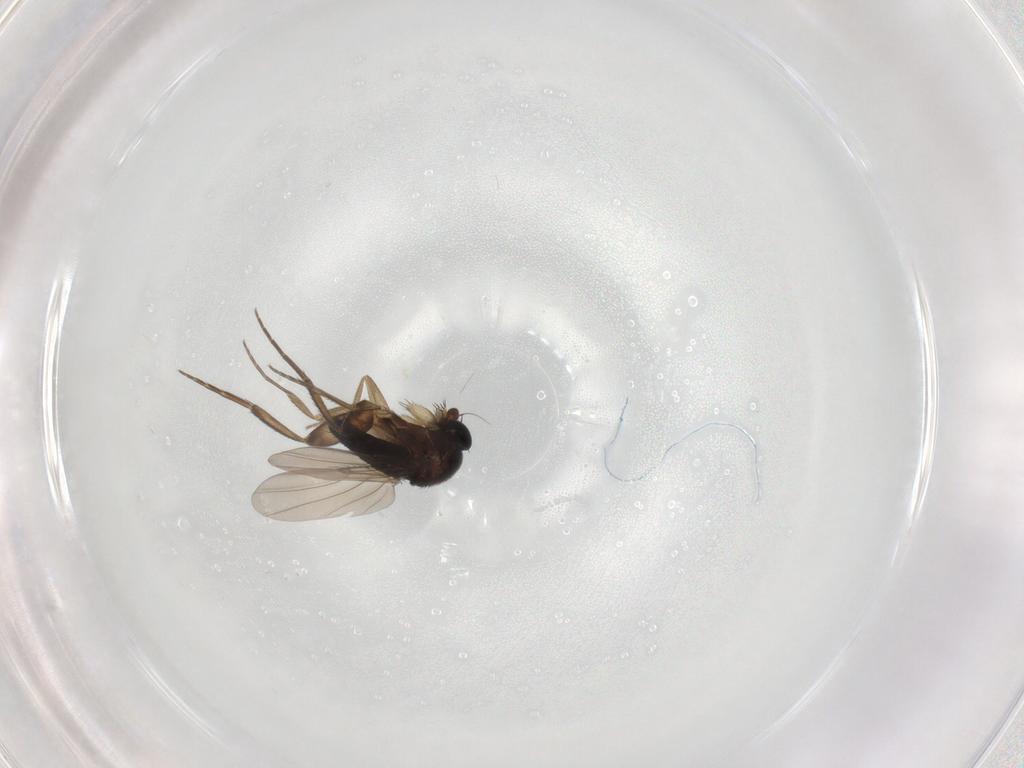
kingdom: Animalia
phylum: Arthropoda
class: Insecta
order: Diptera
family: Phoridae
